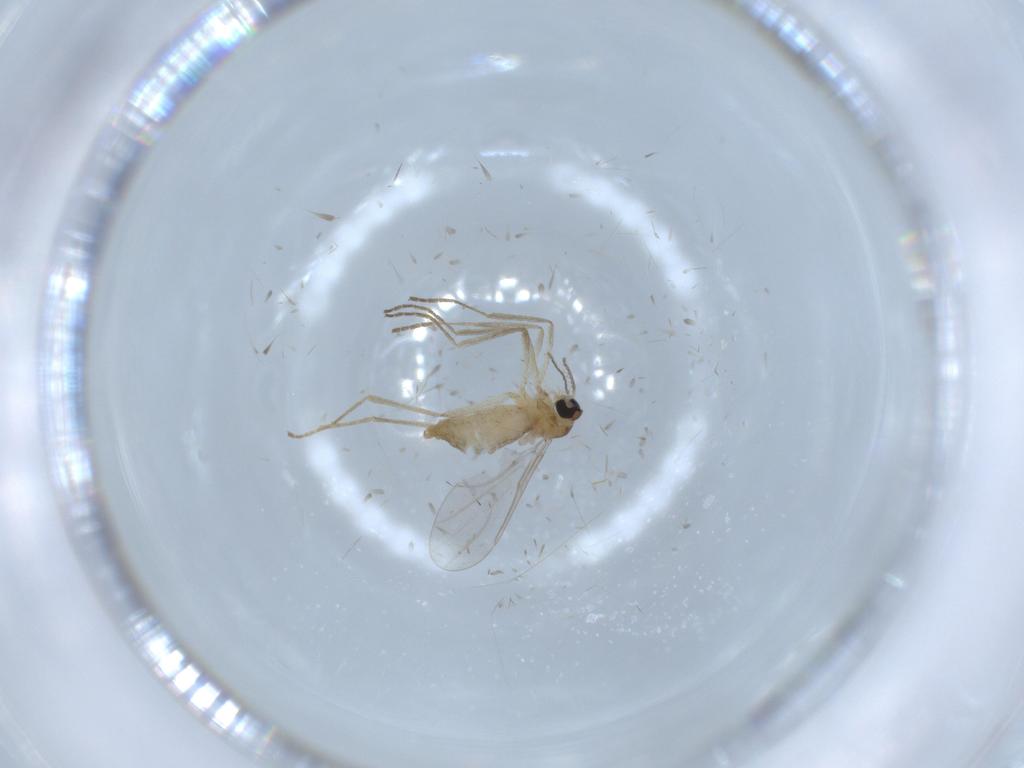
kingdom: Animalia
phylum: Arthropoda
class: Insecta
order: Diptera
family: Cecidomyiidae
